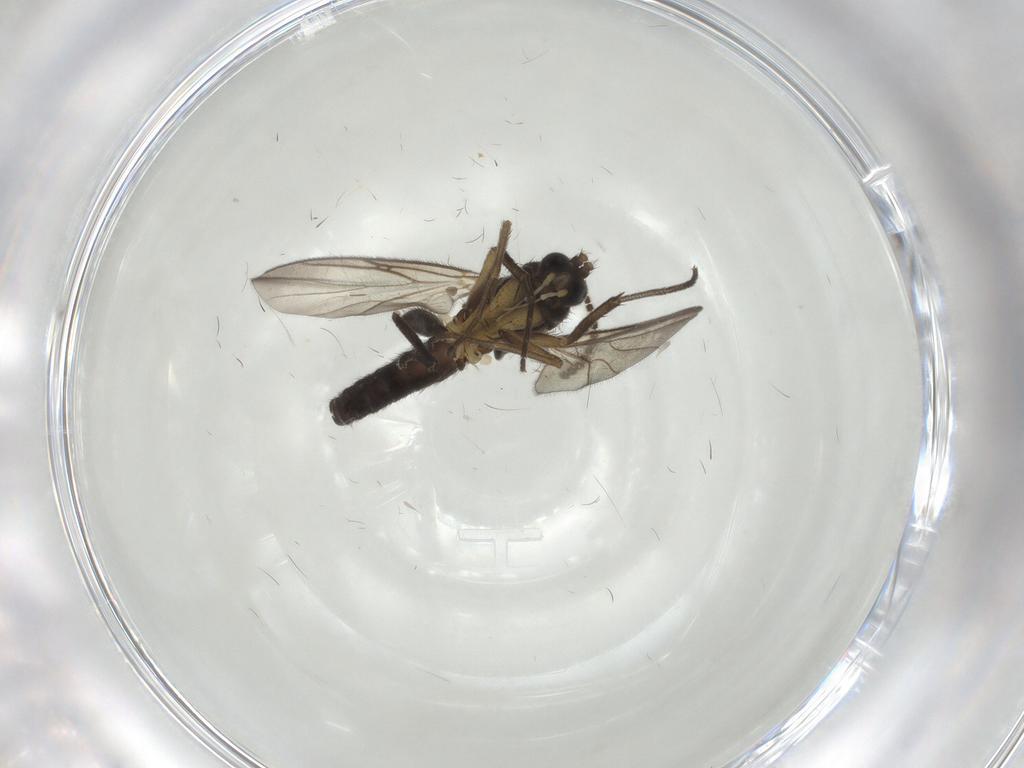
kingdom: Animalia
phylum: Arthropoda
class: Insecta
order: Diptera
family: Mycetophilidae
